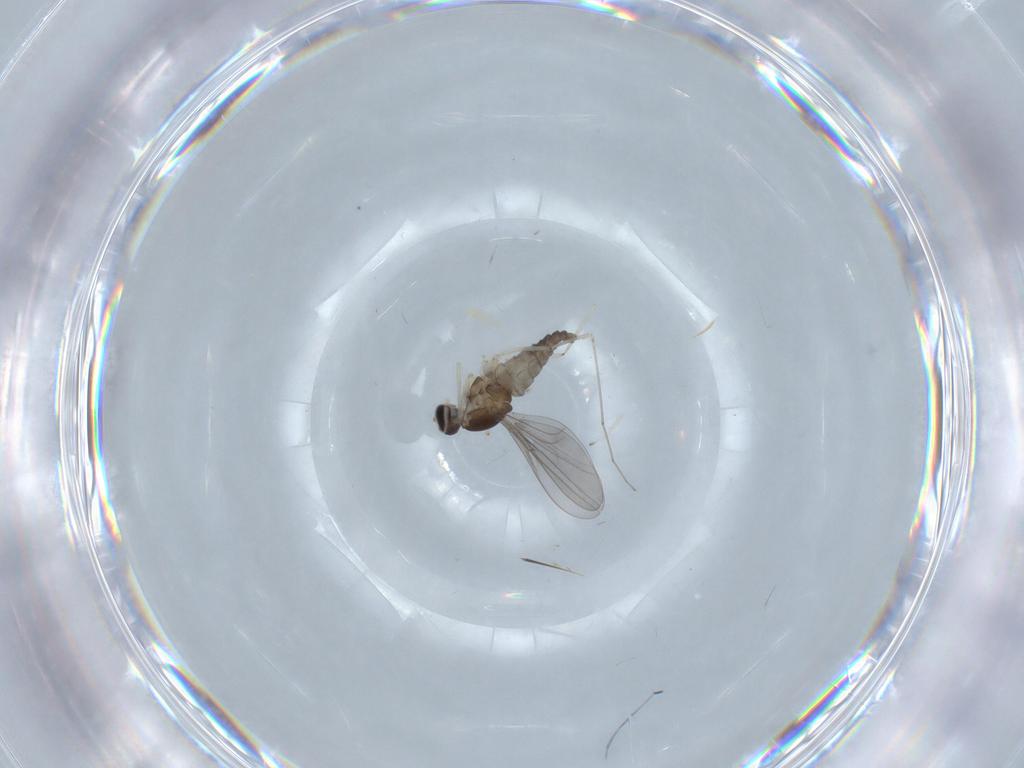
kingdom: Animalia
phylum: Arthropoda
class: Insecta
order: Diptera
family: Cecidomyiidae
